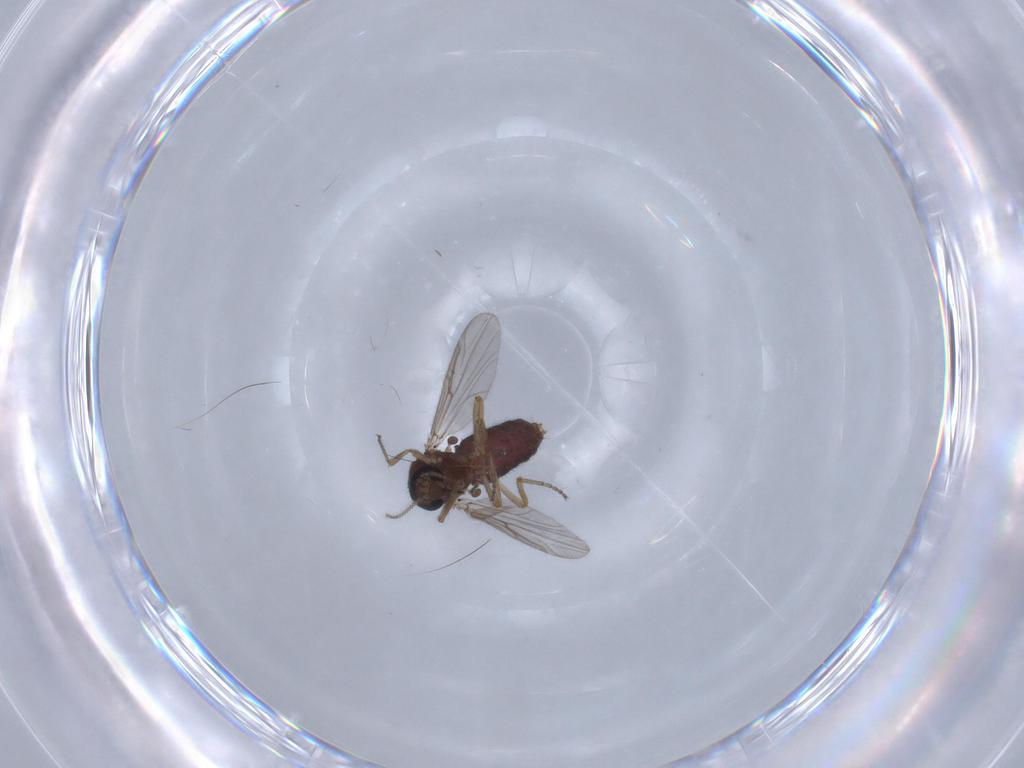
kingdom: Animalia
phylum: Arthropoda
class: Insecta
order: Diptera
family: Ceratopogonidae
